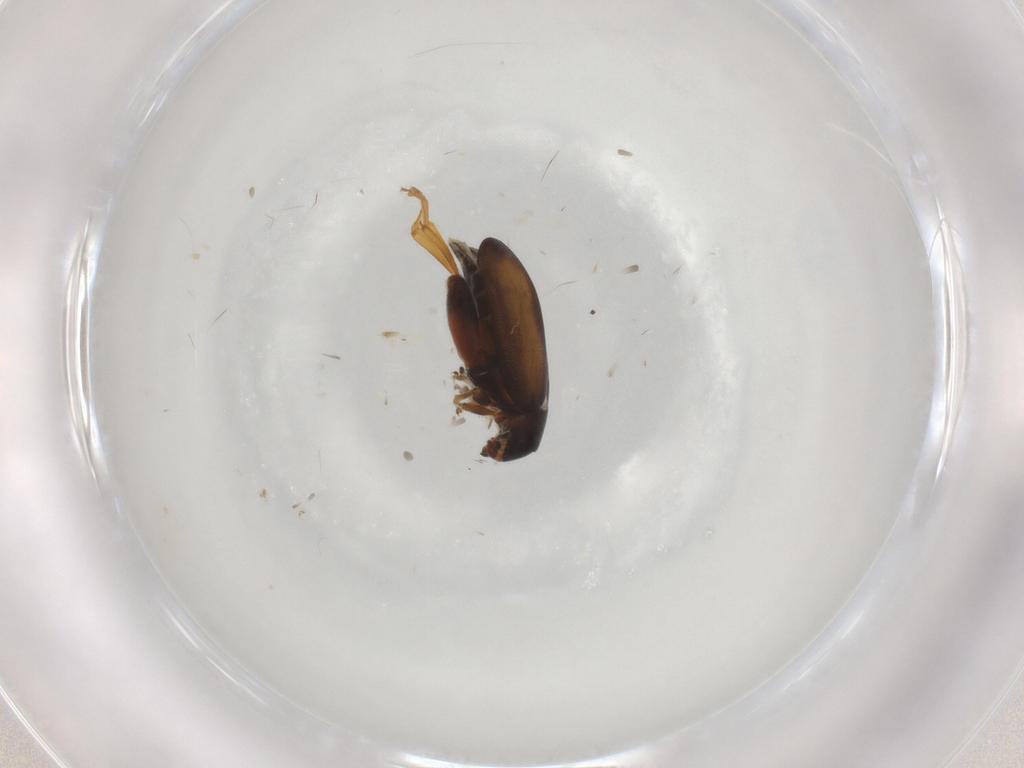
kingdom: Animalia
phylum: Arthropoda
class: Insecta
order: Coleoptera
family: Chrysomelidae
